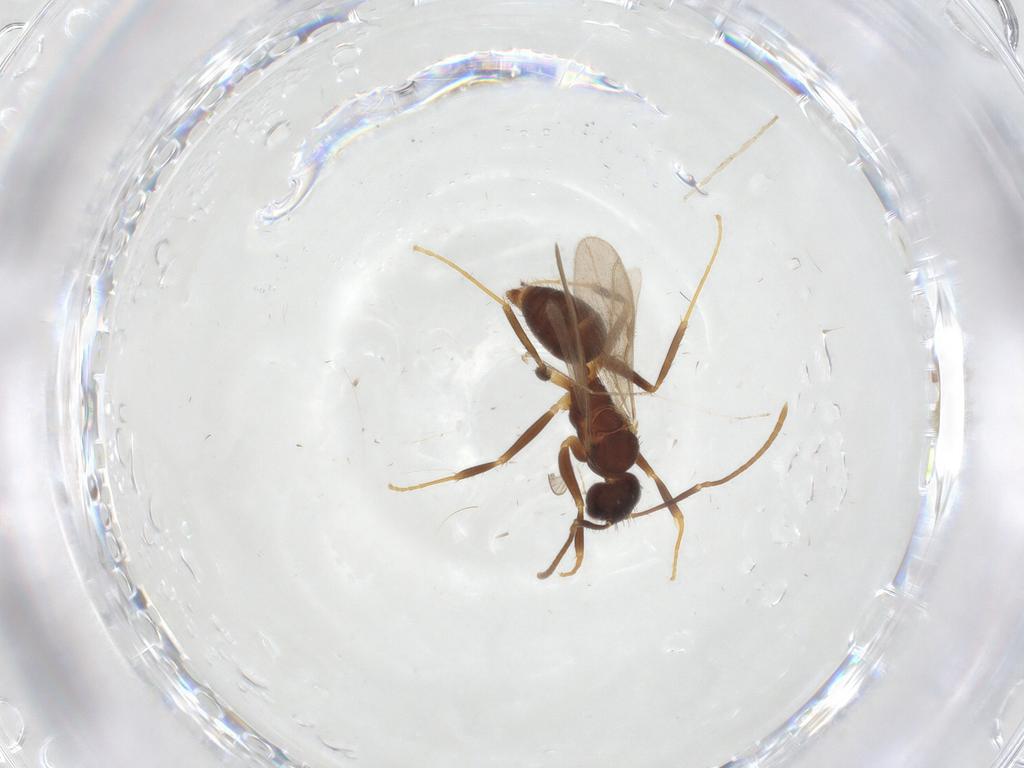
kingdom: Animalia
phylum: Arthropoda
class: Insecta
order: Hymenoptera
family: Formicidae
